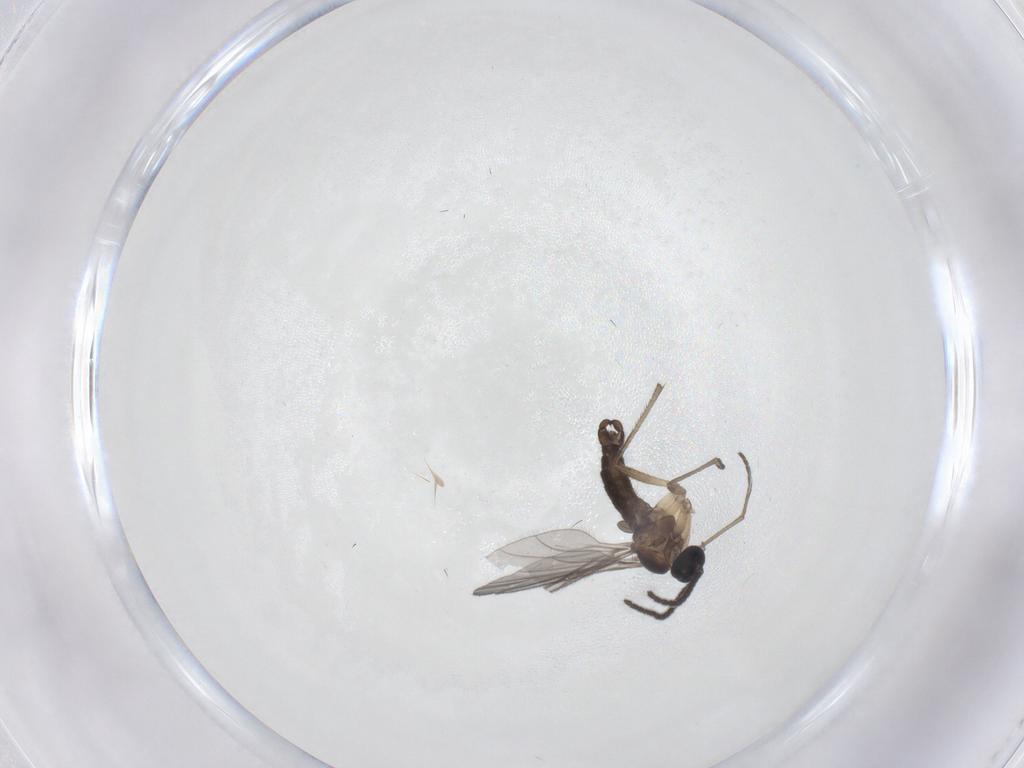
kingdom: Animalia
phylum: Arthropoda
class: Insecta
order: Diptera
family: Sciaridae
